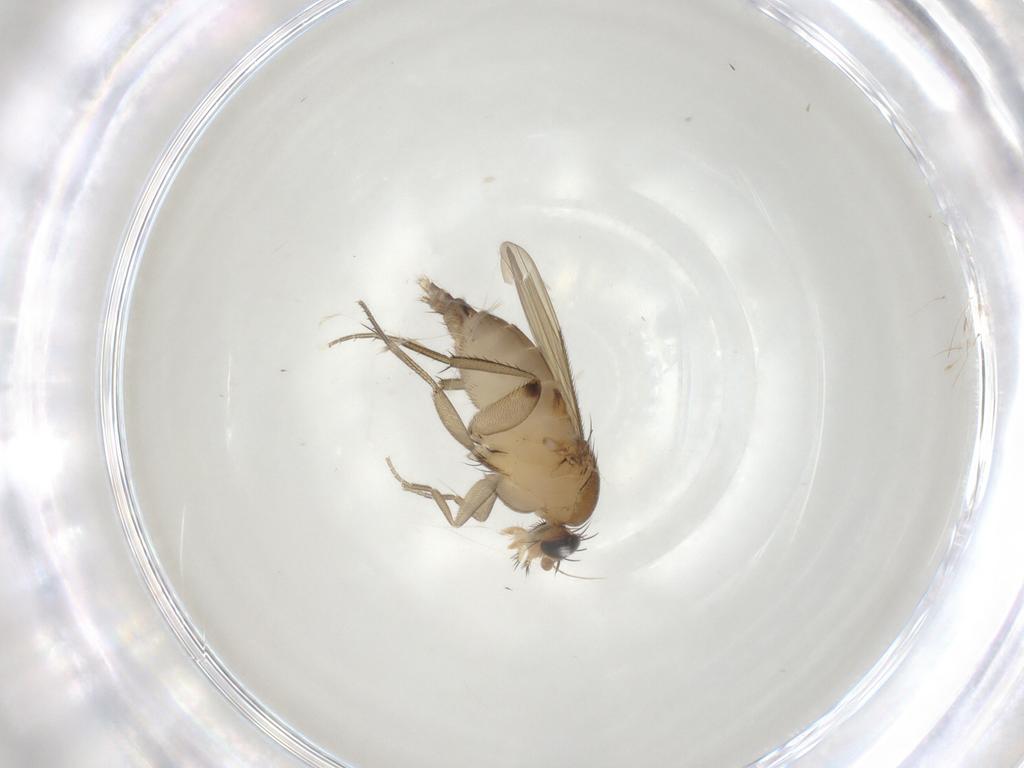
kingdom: Animalia
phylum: Arthropoda
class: Insecta
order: Diptera
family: Phoridae
